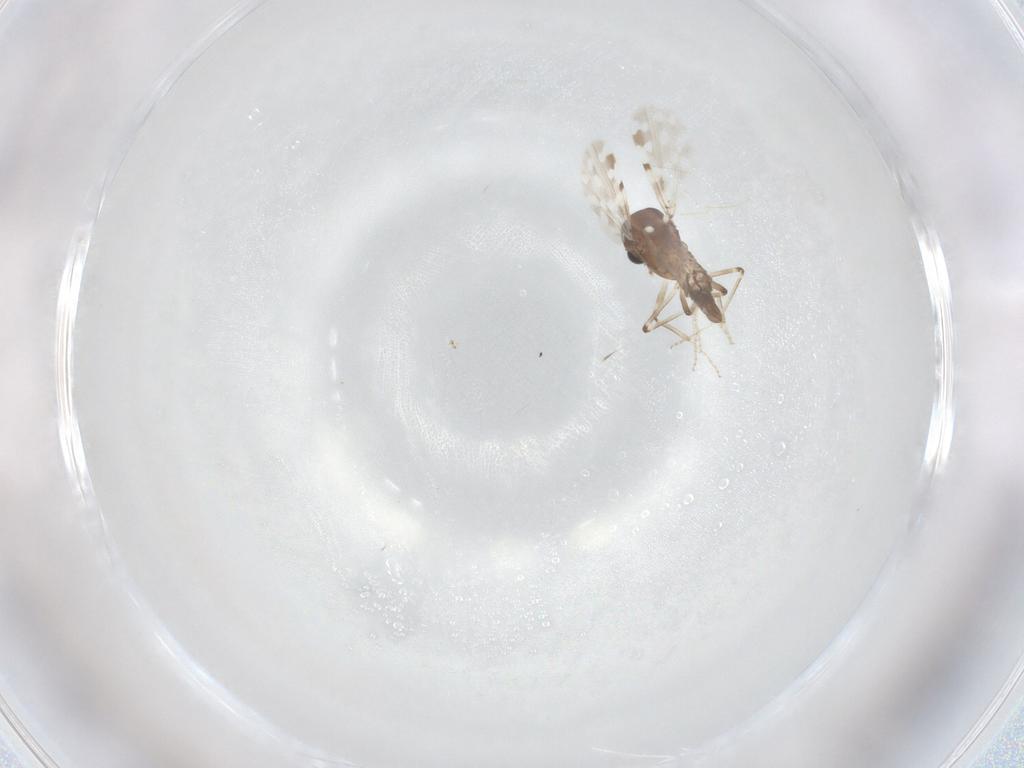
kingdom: Animalia
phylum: Arthropoda
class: Insecta
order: Diptera
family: Ceratopogonidae
